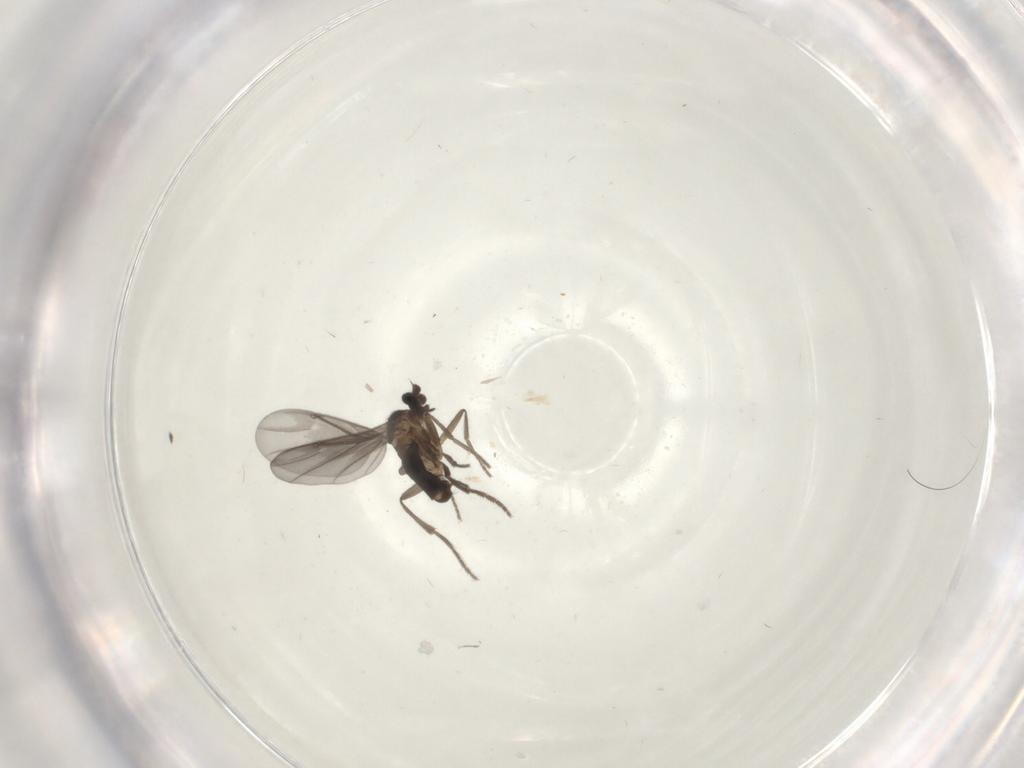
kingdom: Animalia
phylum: Arthropoda
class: Insecta
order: Diptera
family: Phoridae
